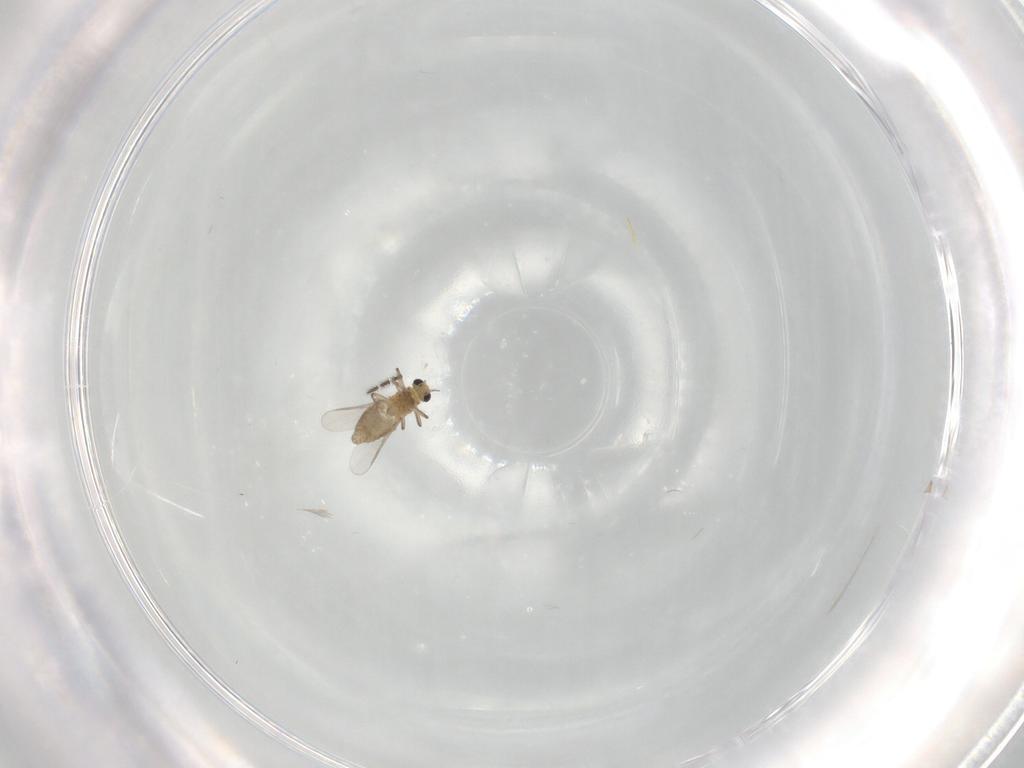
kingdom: Animalia
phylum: Arthropoda
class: Insecta
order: Diptera
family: Chironomidae
